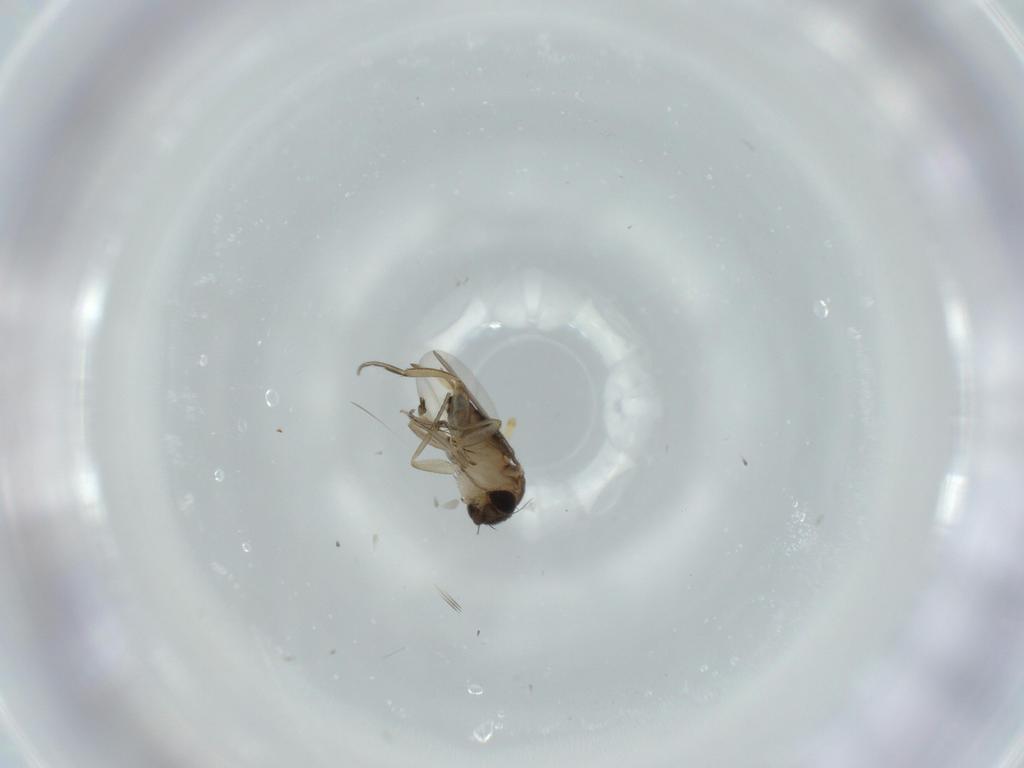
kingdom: Animalia
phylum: Arthropoda
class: Insecta
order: Diptera
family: Phoridae
